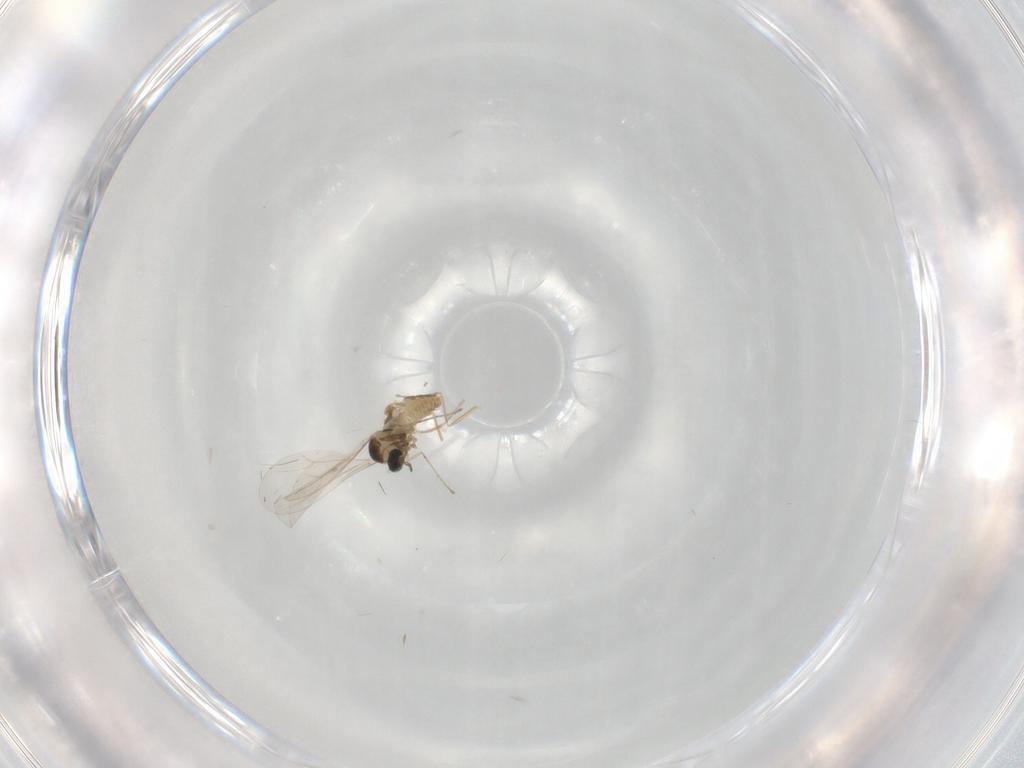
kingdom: Animalia
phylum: Arthropoda
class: Insecta
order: Diptera
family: Cecidomyiidae
